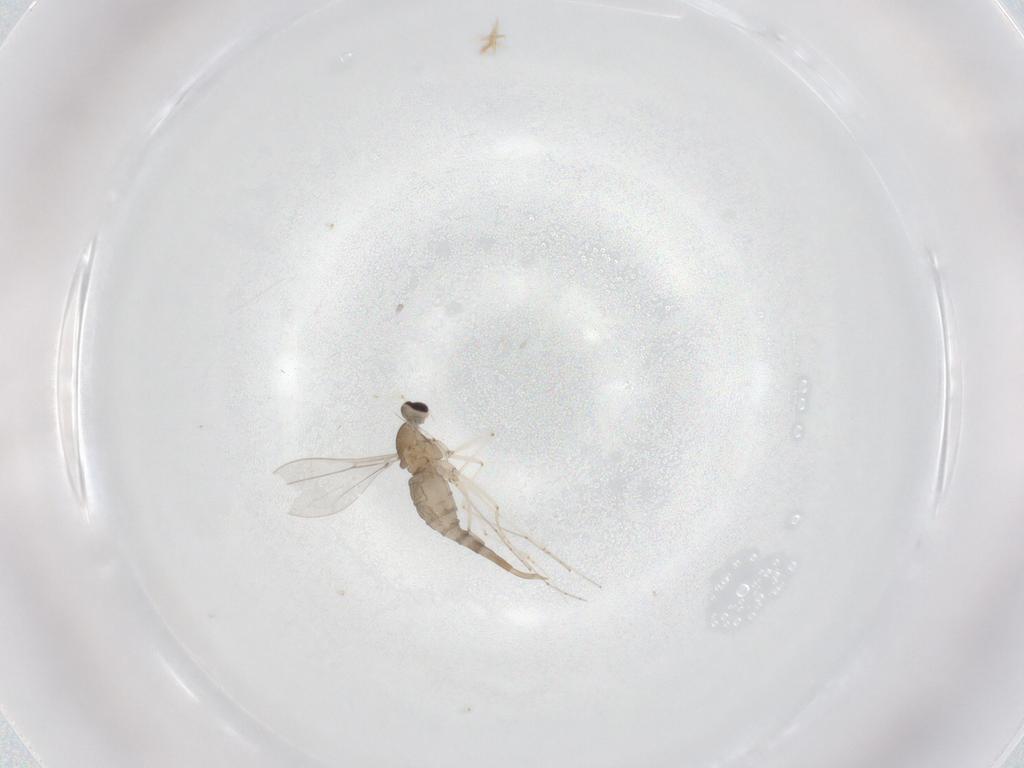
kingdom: Animalia
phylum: Arthropoda
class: Insecta
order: Diptera
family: Cecidomyiidae
